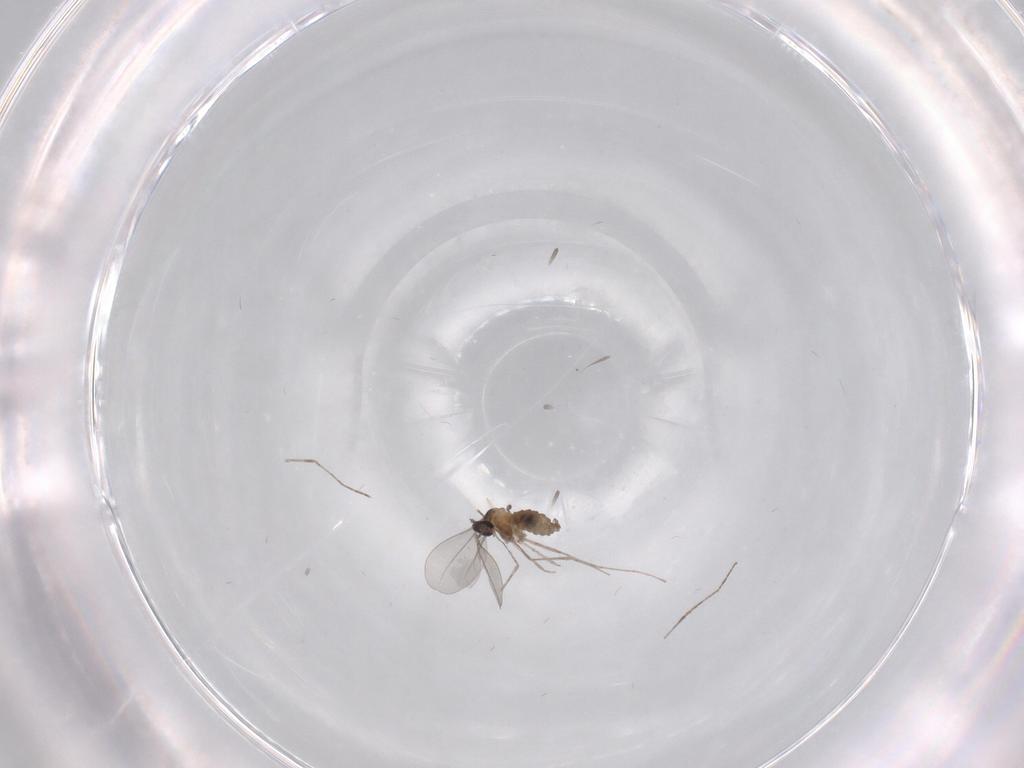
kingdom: Animalia
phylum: Arthropoda
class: Insecta
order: Diptera
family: Cecidomyiidae
